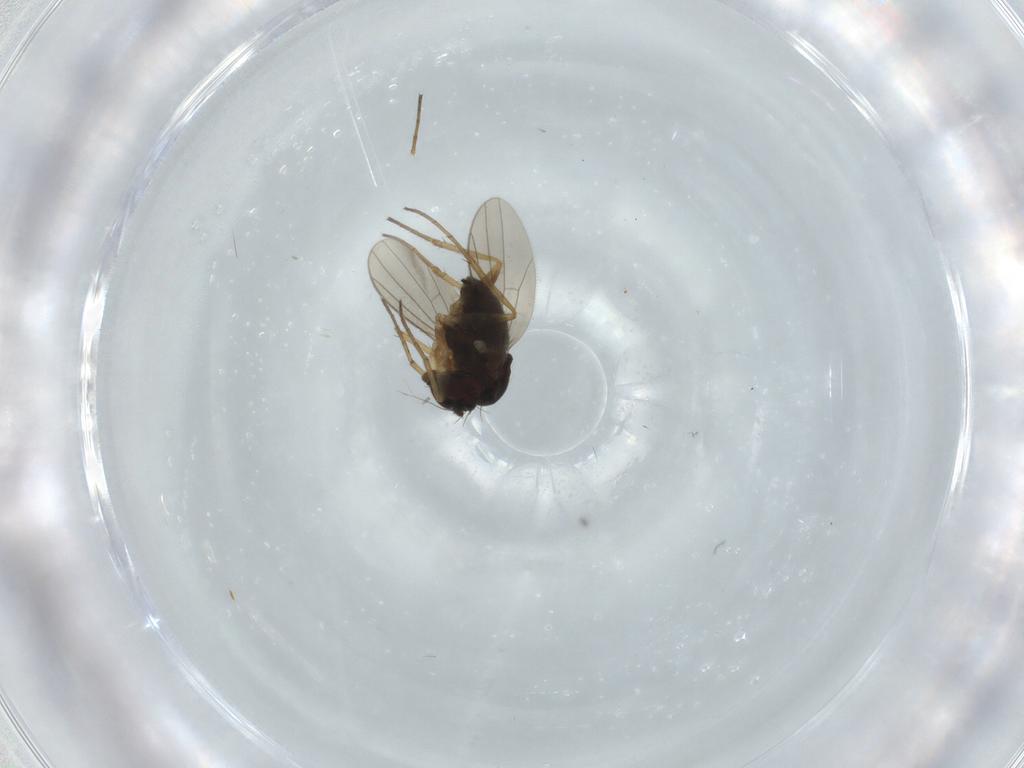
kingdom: Animalia
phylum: Arthropoda
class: Insecta
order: Diptera
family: Dolichopodidae
